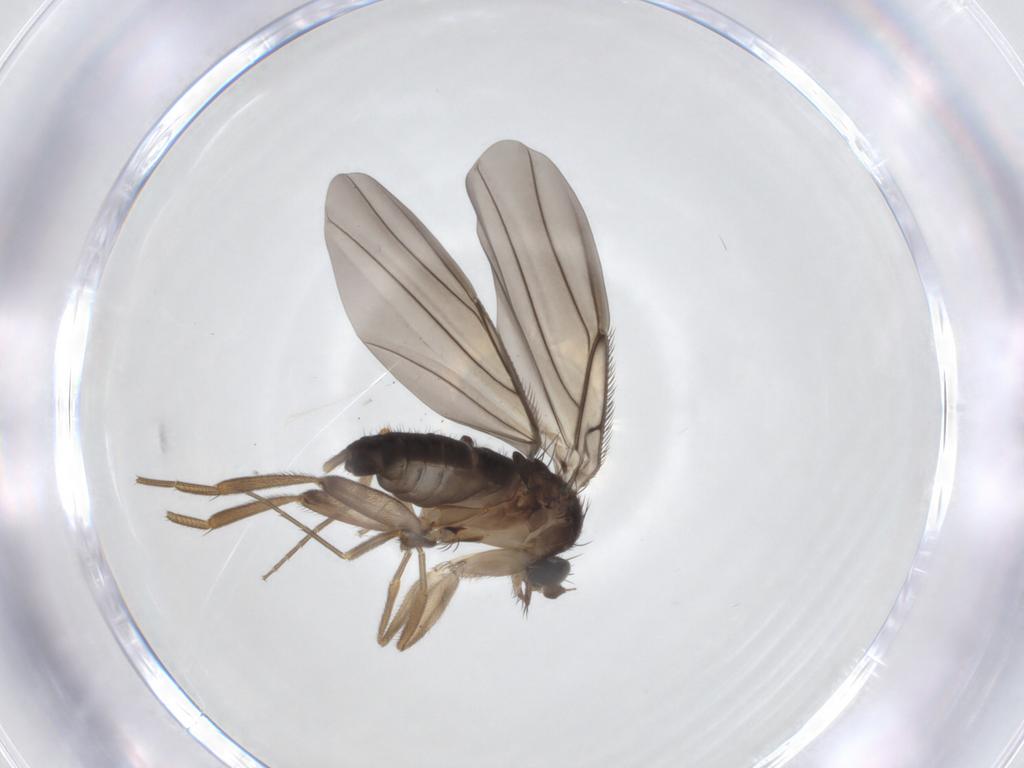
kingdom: Animalia
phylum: Arthropoda
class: Insecta
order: Diptera
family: Phoridae
